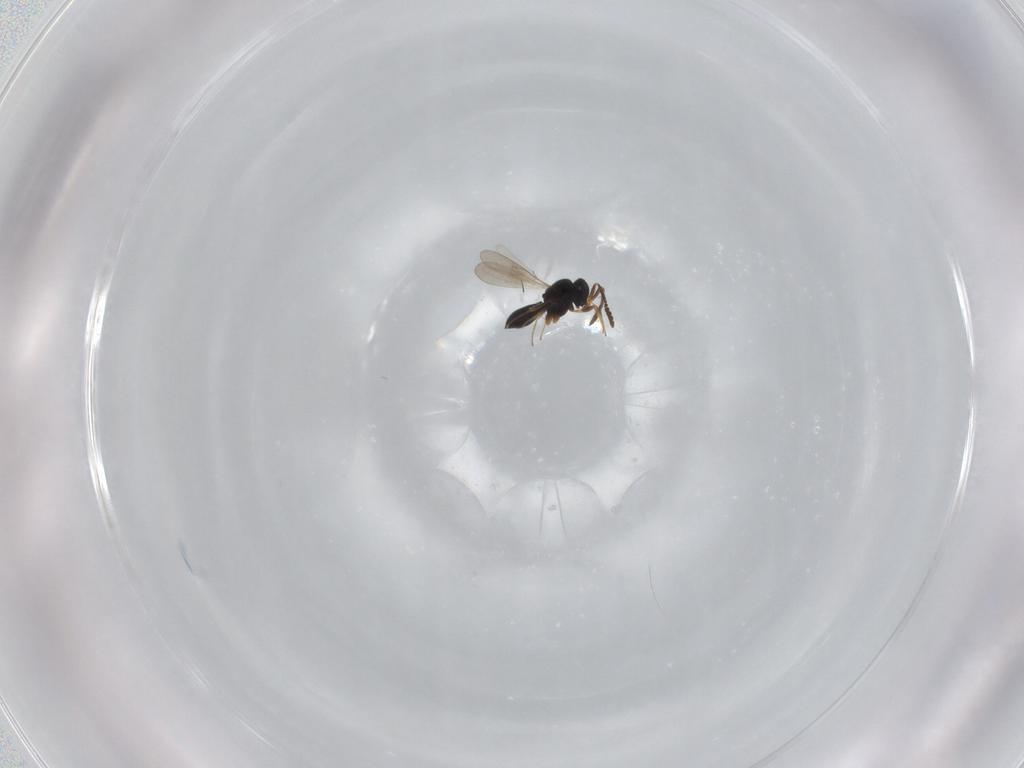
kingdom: Animalia
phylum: Arthropoda
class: Insecta
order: Hymenoptera
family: Scelionidae
